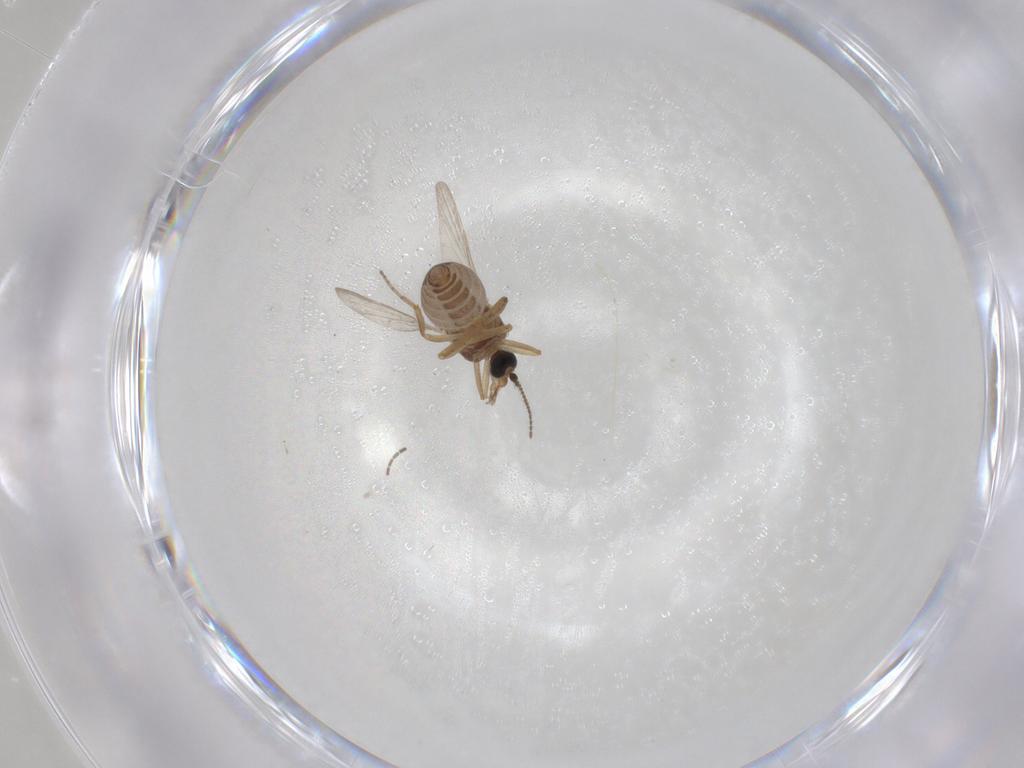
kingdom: Animalia
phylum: Arthropoda
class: Insecta
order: Diptera
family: Ceratopogonidae
